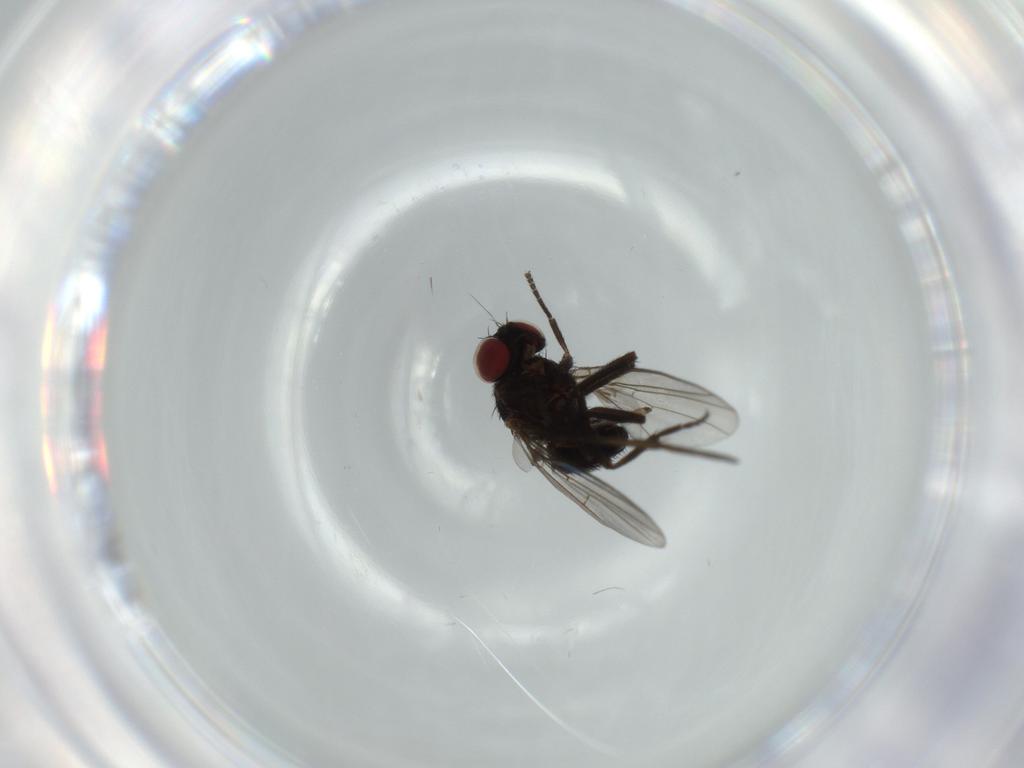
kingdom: Animalia
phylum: Arthropoda
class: Insecta
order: Diptera
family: Agromyzidae
